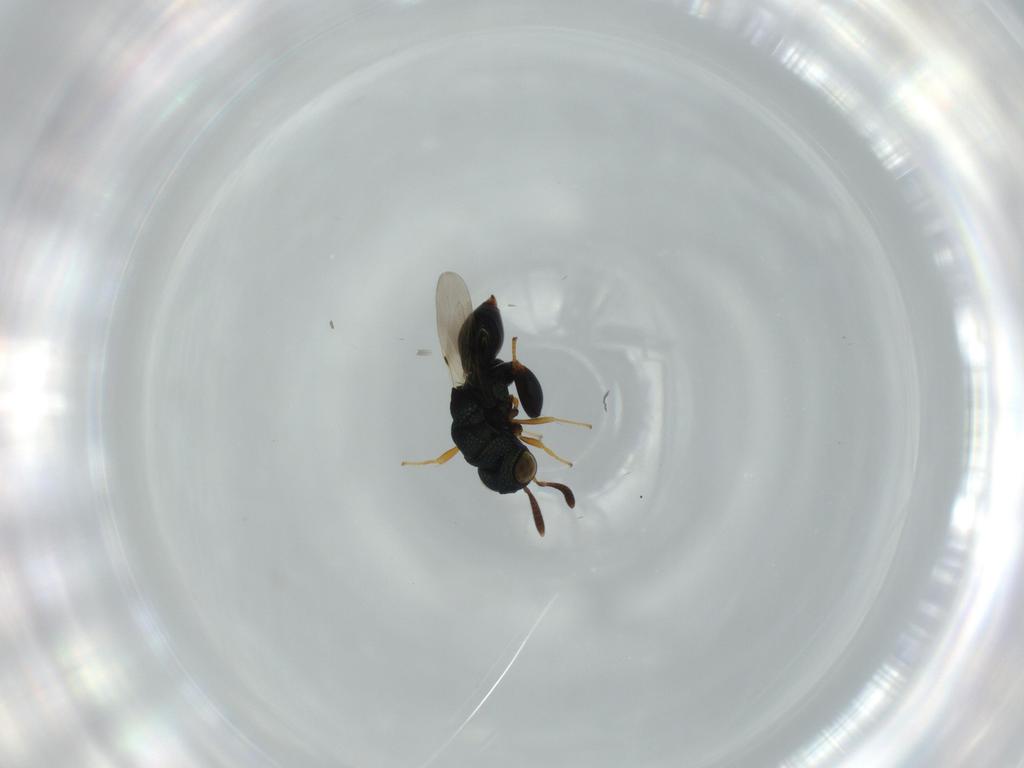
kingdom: Animalia
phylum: Arthropoda
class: Insecta
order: Hymenoptera
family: Chalcididae
